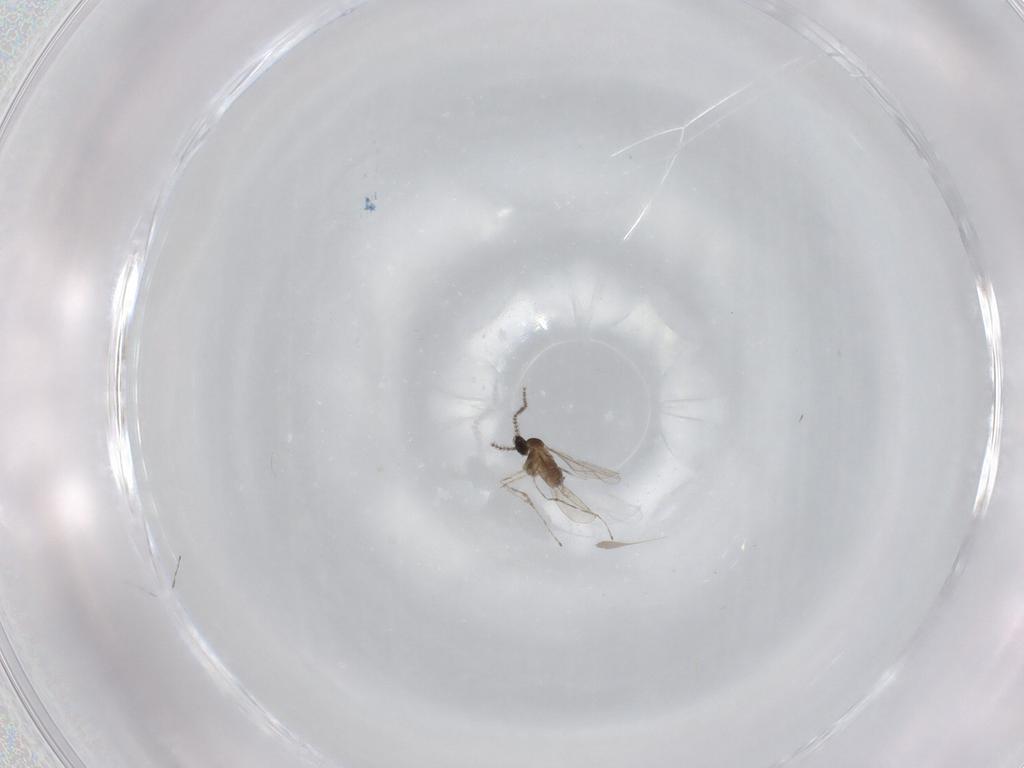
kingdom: Animalia
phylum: Arthropoda
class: Insecta
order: Diptera
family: Cecidomyiidae
